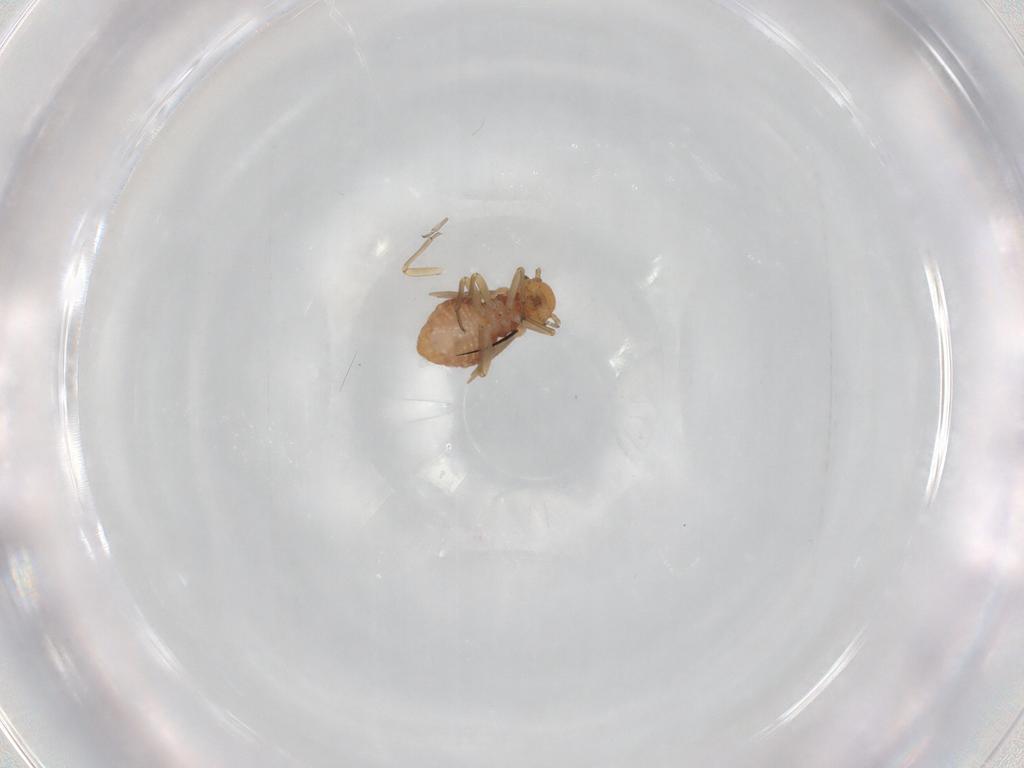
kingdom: Animalia
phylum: Arthropoda
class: Insecta
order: Psocodea
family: Lachesillidae
